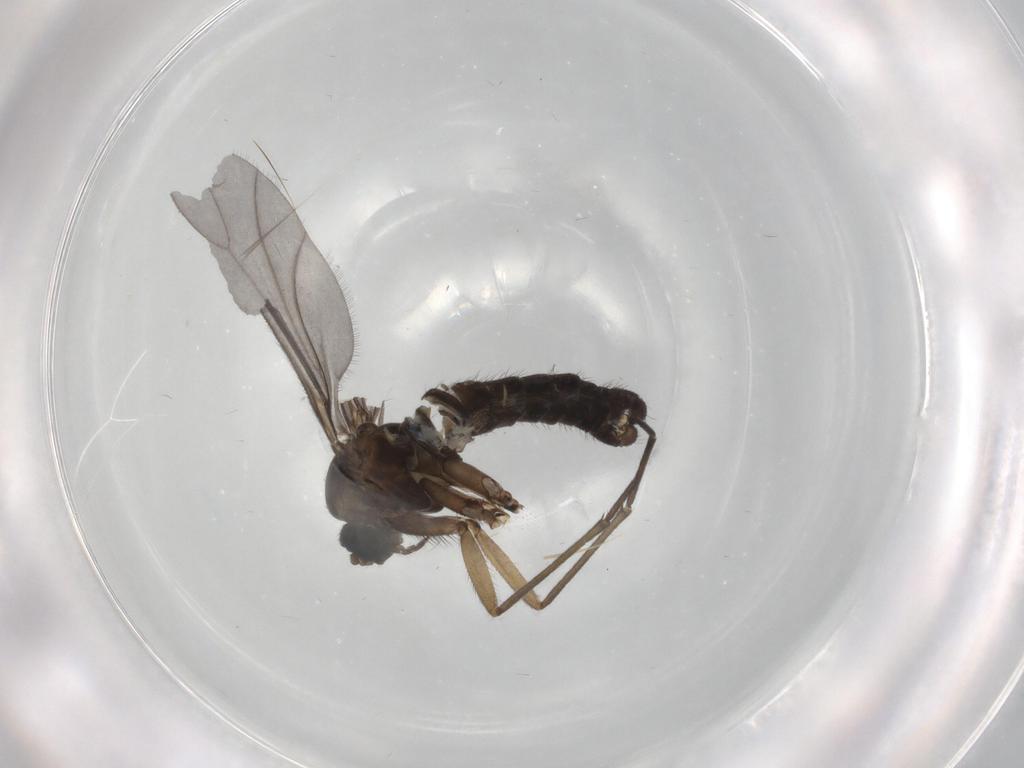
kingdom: Animalia
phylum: Arthropoda
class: Insecta
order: Diptera
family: Sciaridae
